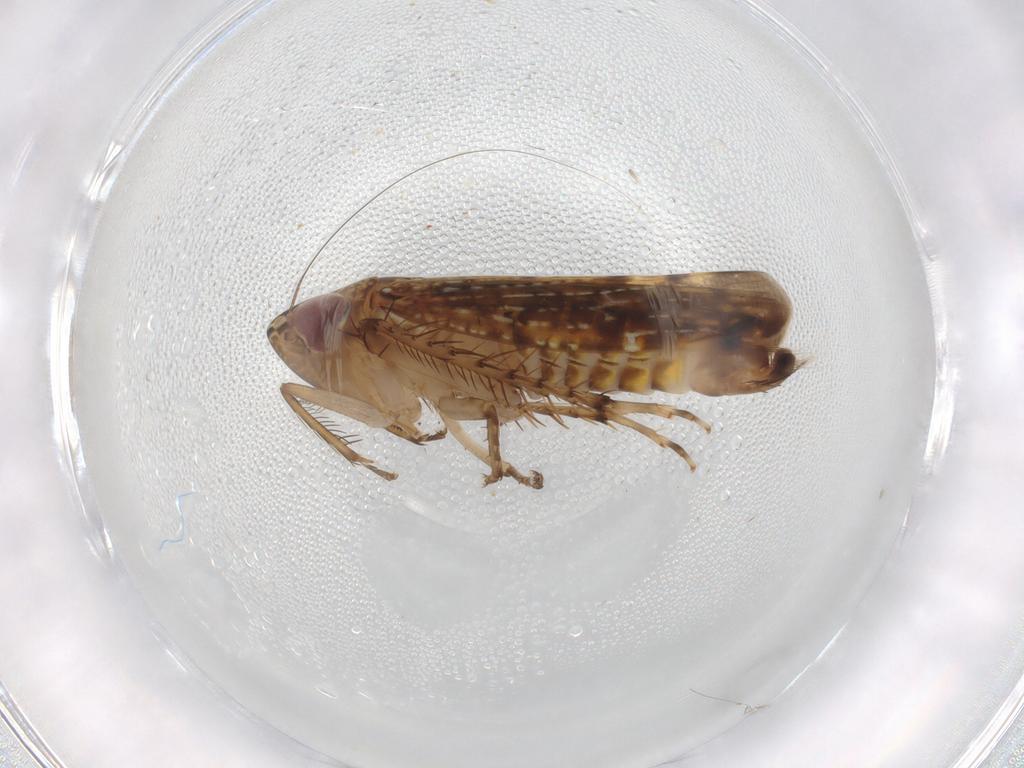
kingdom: Animalia
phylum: Arthropoda
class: Insecta
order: Hemiptera
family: Cicadellidae
